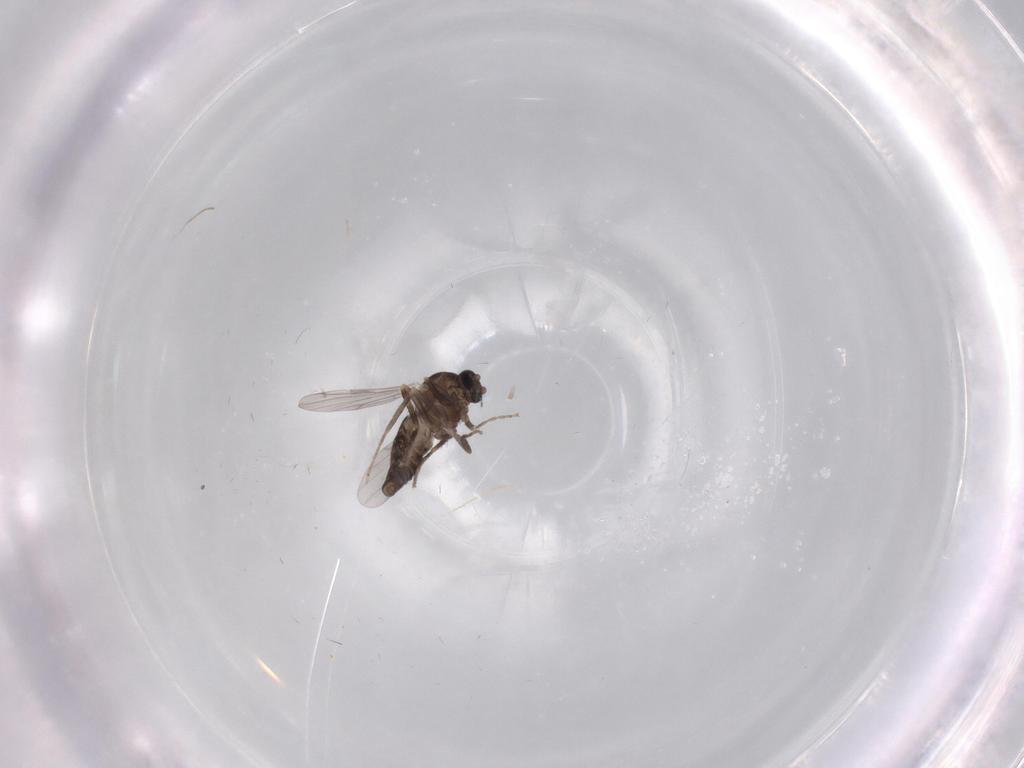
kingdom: Animalia
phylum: Arthropoda
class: Insecta
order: Diptera
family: Ceratopogonidae
